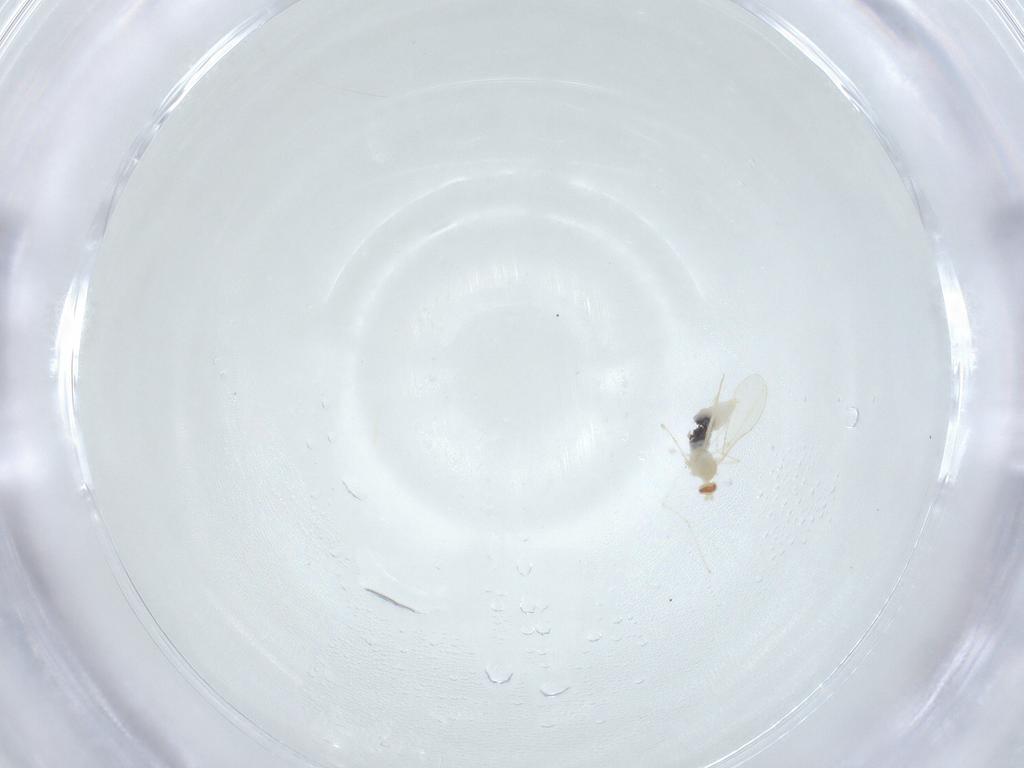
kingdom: Animalia
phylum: Arthropoda
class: Insecta
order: Diptera
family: Cecidomyiidae
